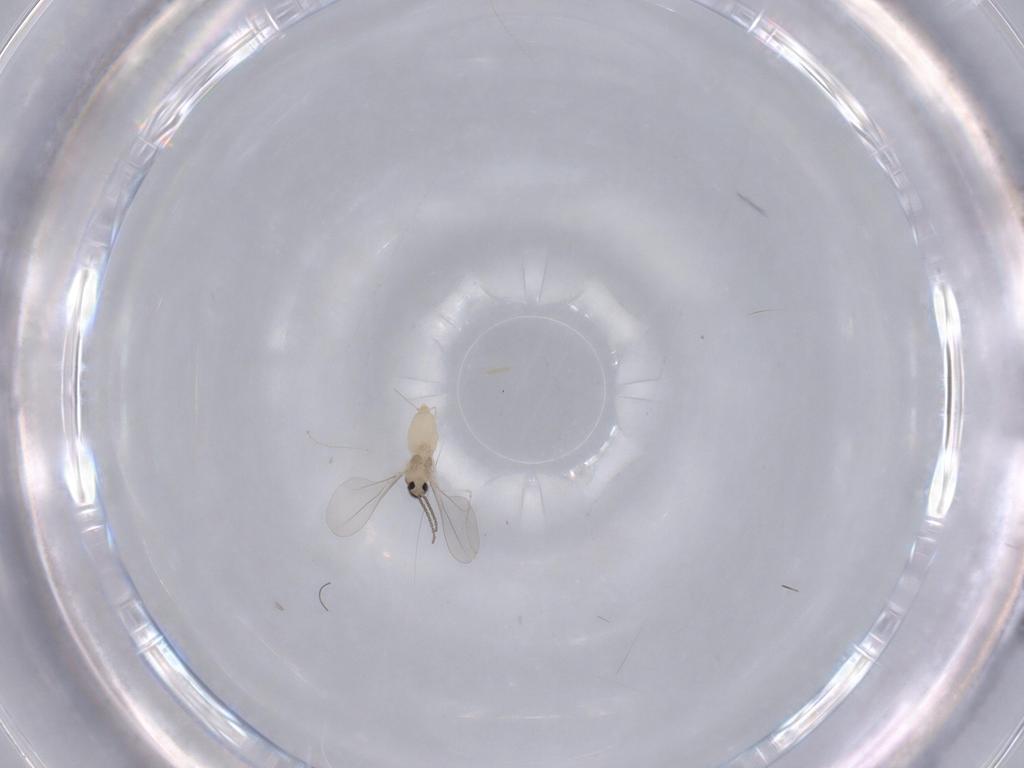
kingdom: Animalia
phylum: Arthropoda
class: Insecta
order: Diptera
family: Cecidomyiidae
